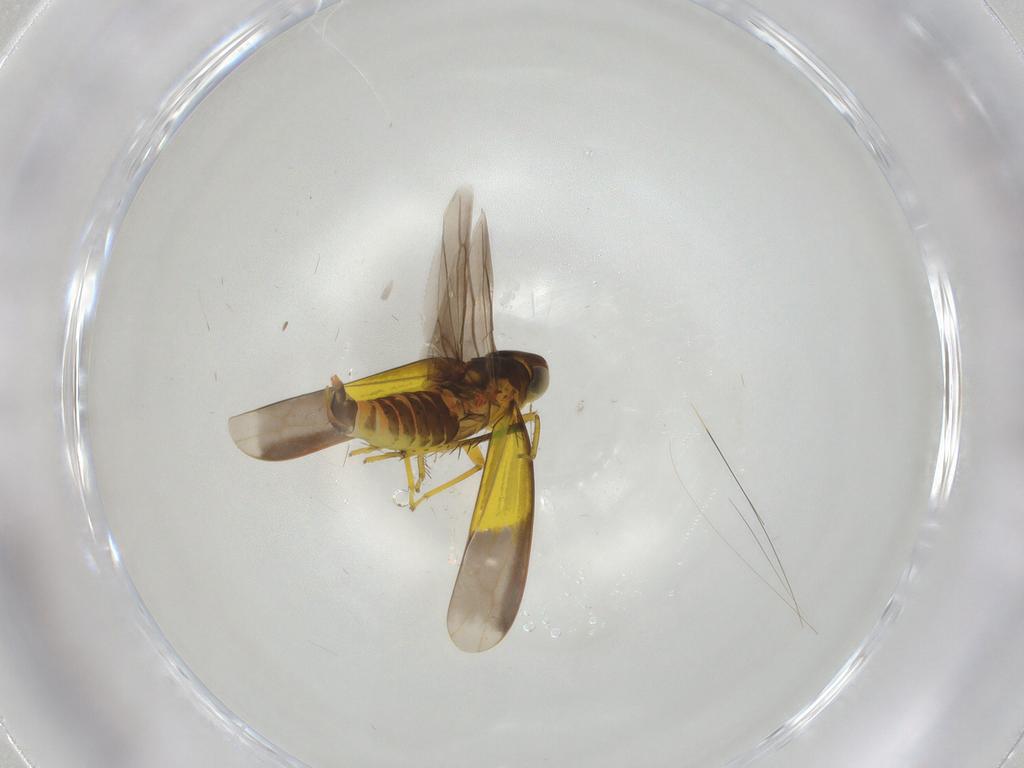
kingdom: Animalia
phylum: Arthropoda
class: Insecta
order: Hemiptera
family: Cicadellidae
